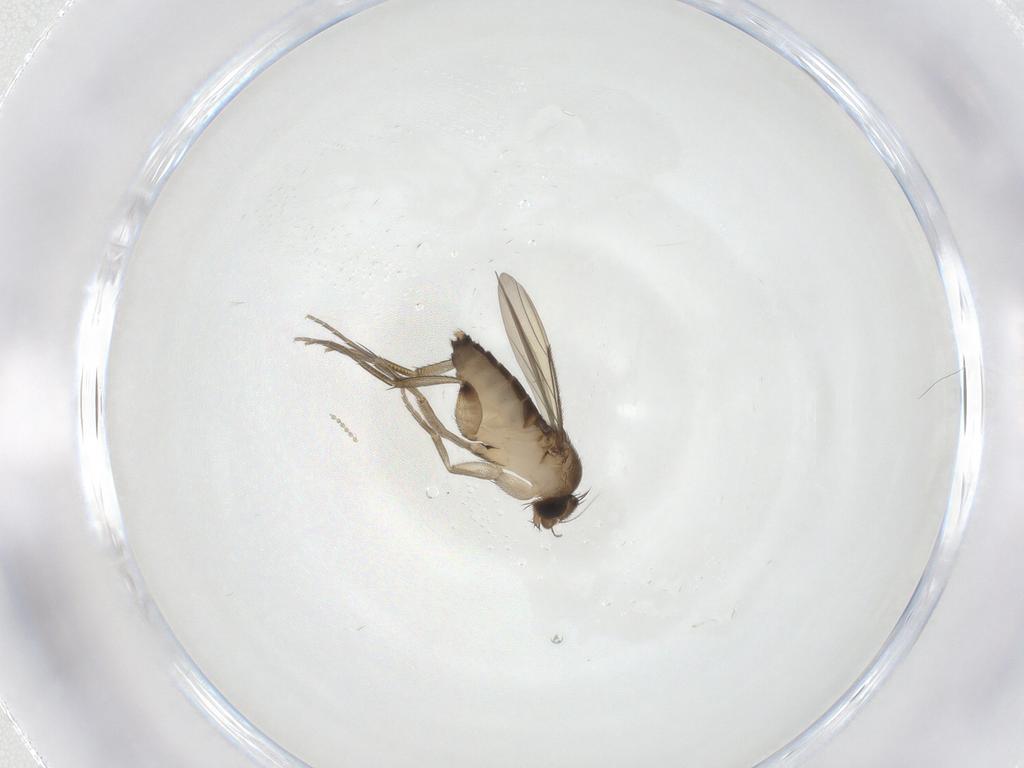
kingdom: Animalia
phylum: Arthropoda
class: Insecta
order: Diptera
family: Phoridae
